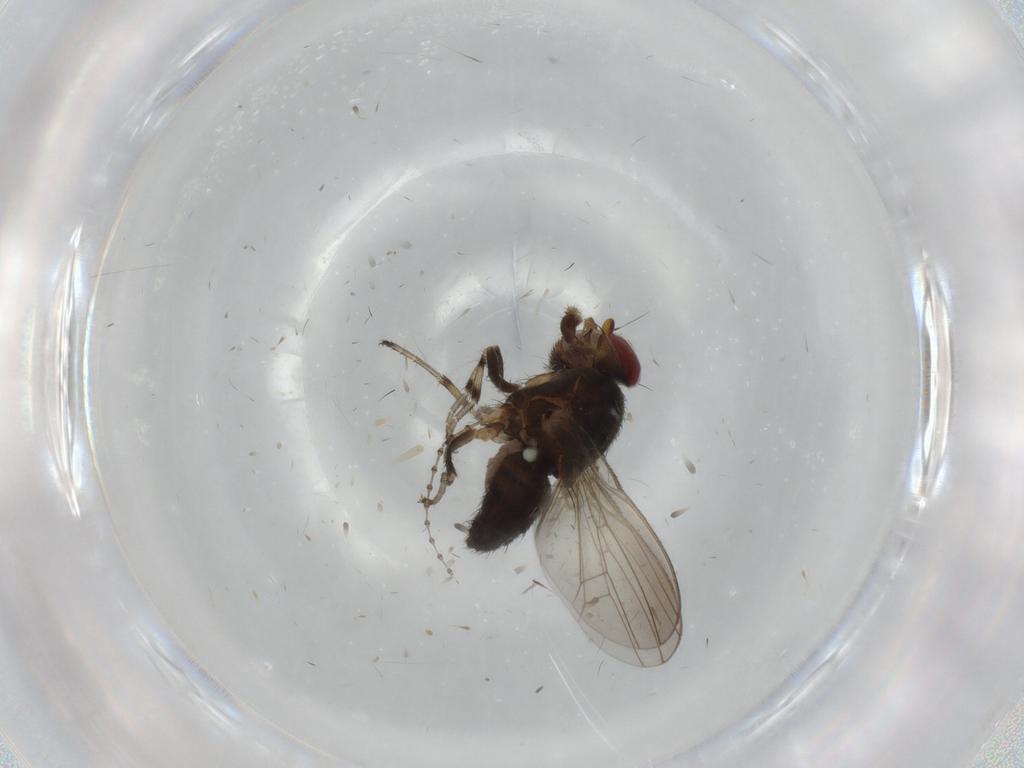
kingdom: Animalia
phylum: Arthropoda
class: Insecta
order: Diptera
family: Heleomyzidae
